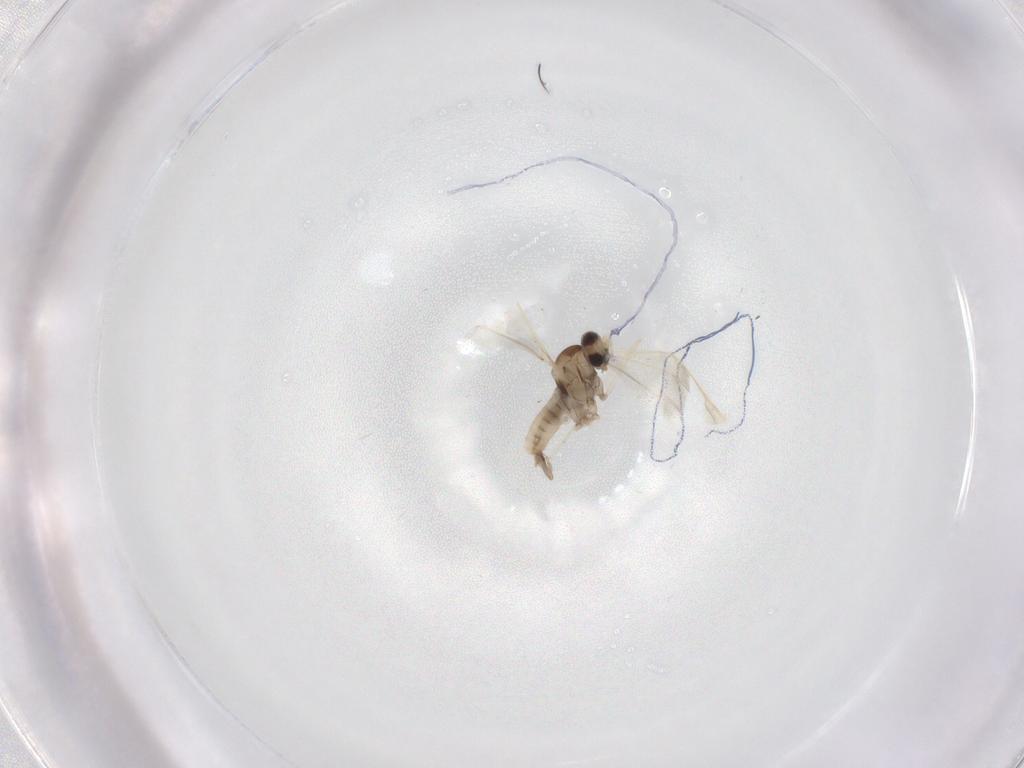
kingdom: Animalia
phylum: Arthropoda
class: Insecta
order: Diptera
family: Cecidomyiidae
